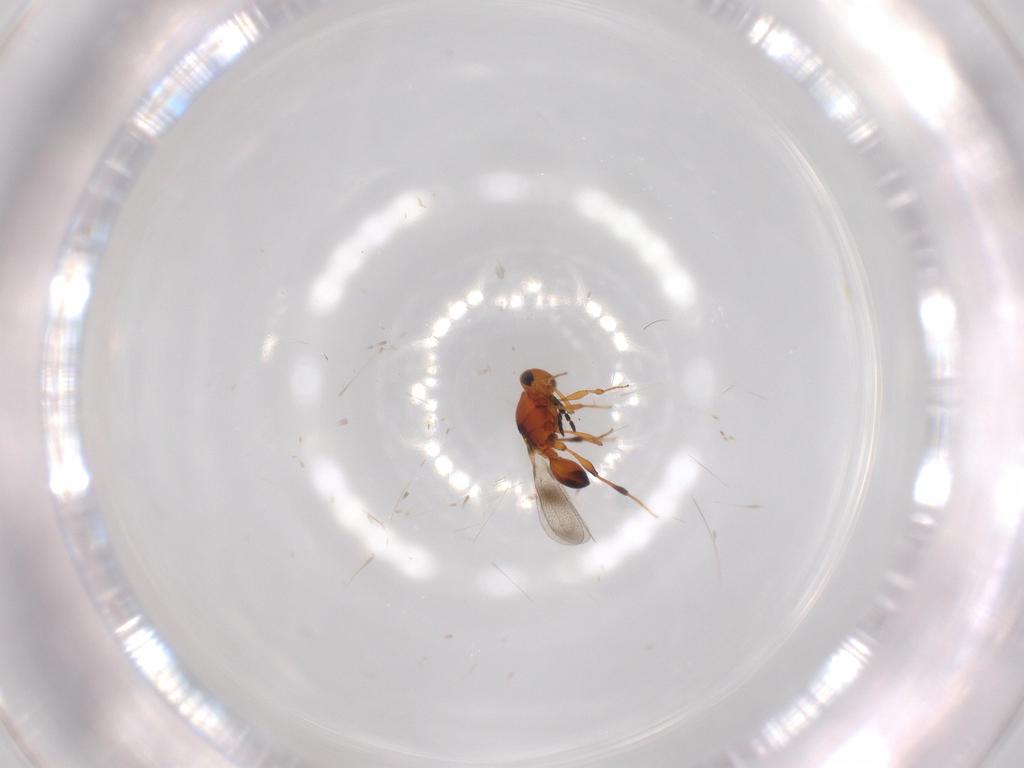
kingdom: Animalia
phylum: Arthropoda
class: Insecta
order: Hymenoptera
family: Platygastridae
